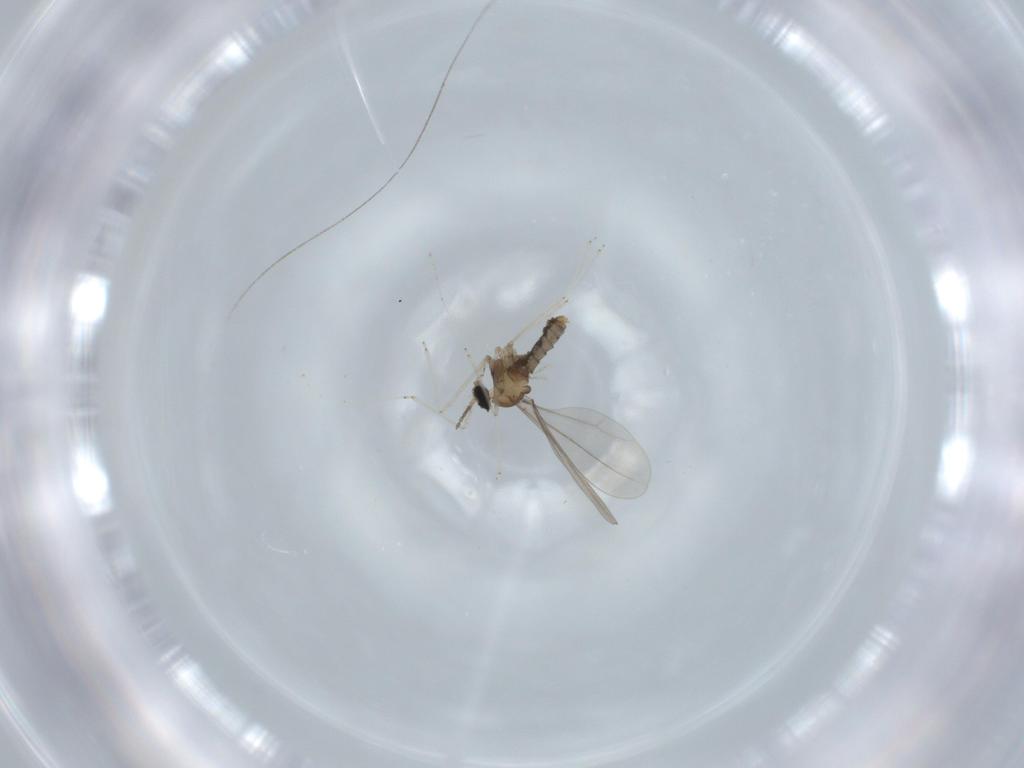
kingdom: Animalia
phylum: Arthropoda
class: Insecta
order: Diptera
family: Cecidomyiidae
